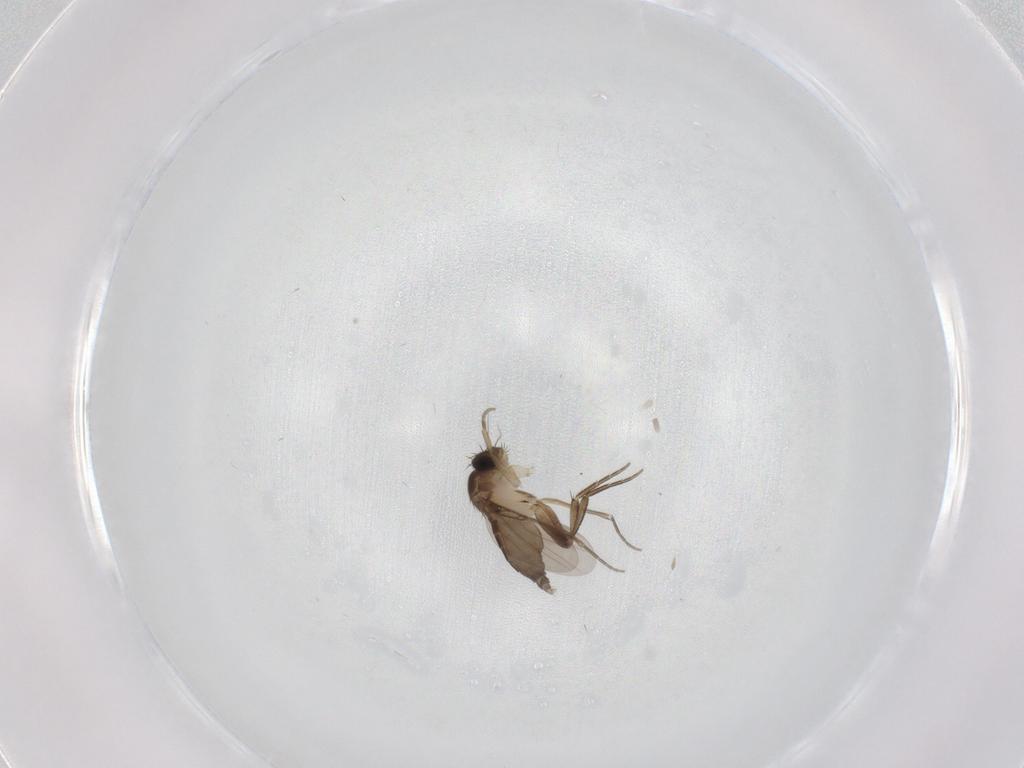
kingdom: Animalia
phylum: Arthropoda
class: Insecta
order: Diptera
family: Phoridae
